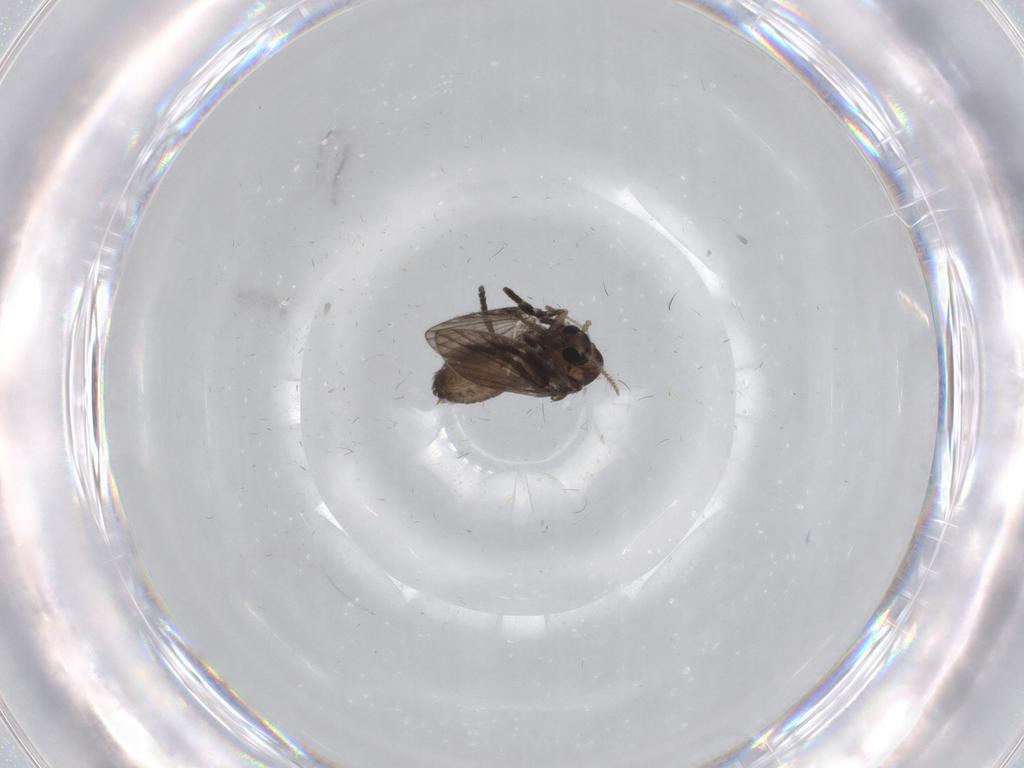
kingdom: Animalia
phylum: Arthropoda
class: Insecta
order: Diptera
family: Psychodidae
